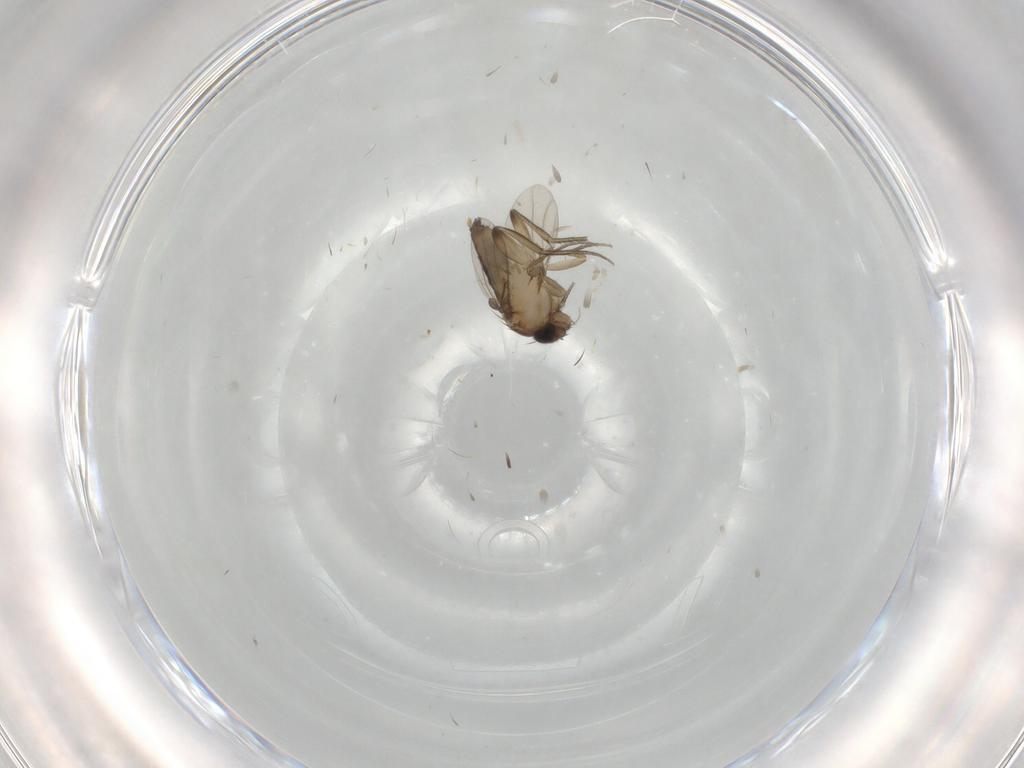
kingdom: Animalia
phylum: Arthropoda
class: Insecta
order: Diptera
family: Phoridae
